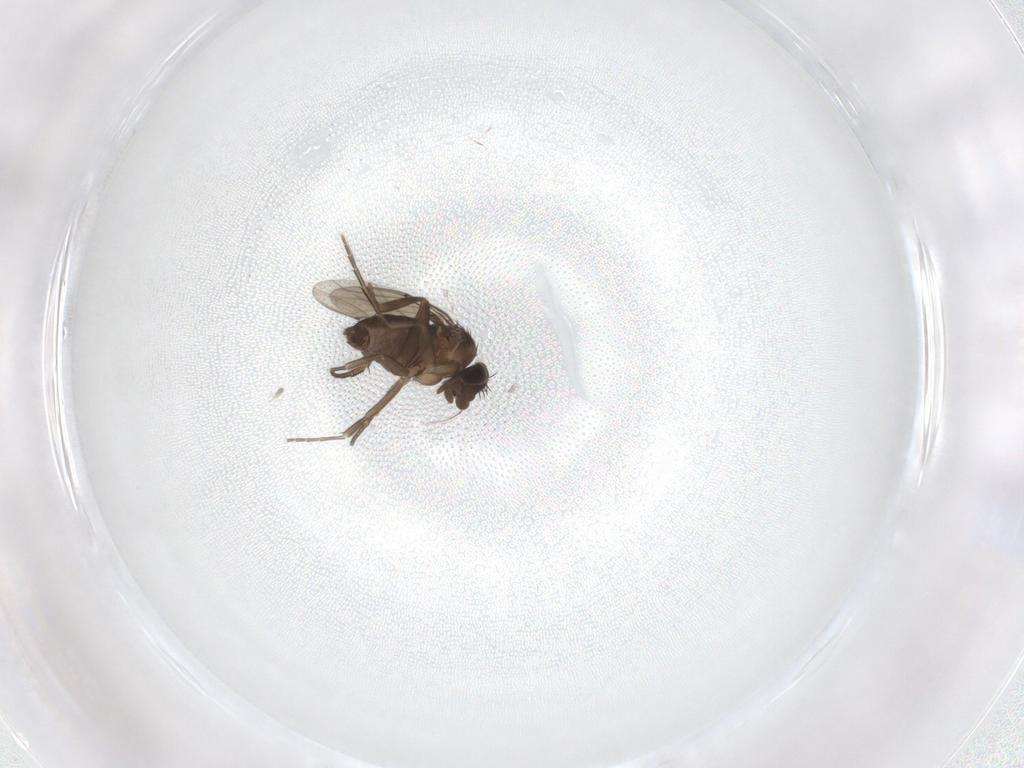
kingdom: Animalia
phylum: Arthropoda
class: Insecta
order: Diptera
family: Phoridae
